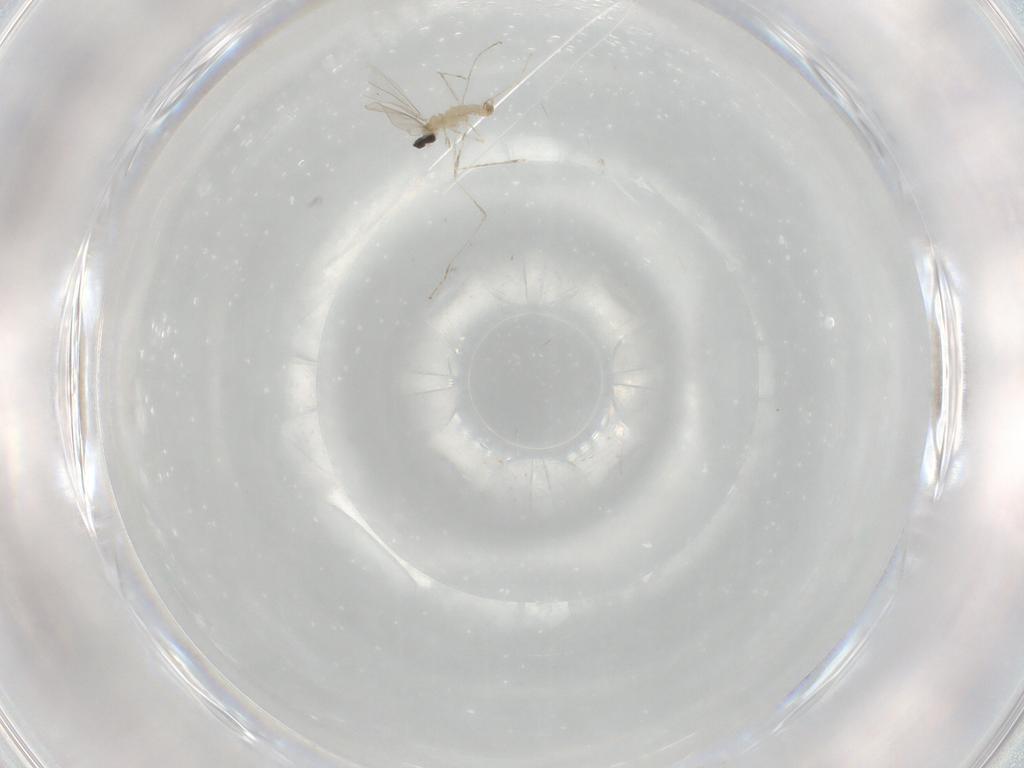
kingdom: Animalia
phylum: Arthropoda
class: Insecta
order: Diptera
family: Cecidomyiidae
